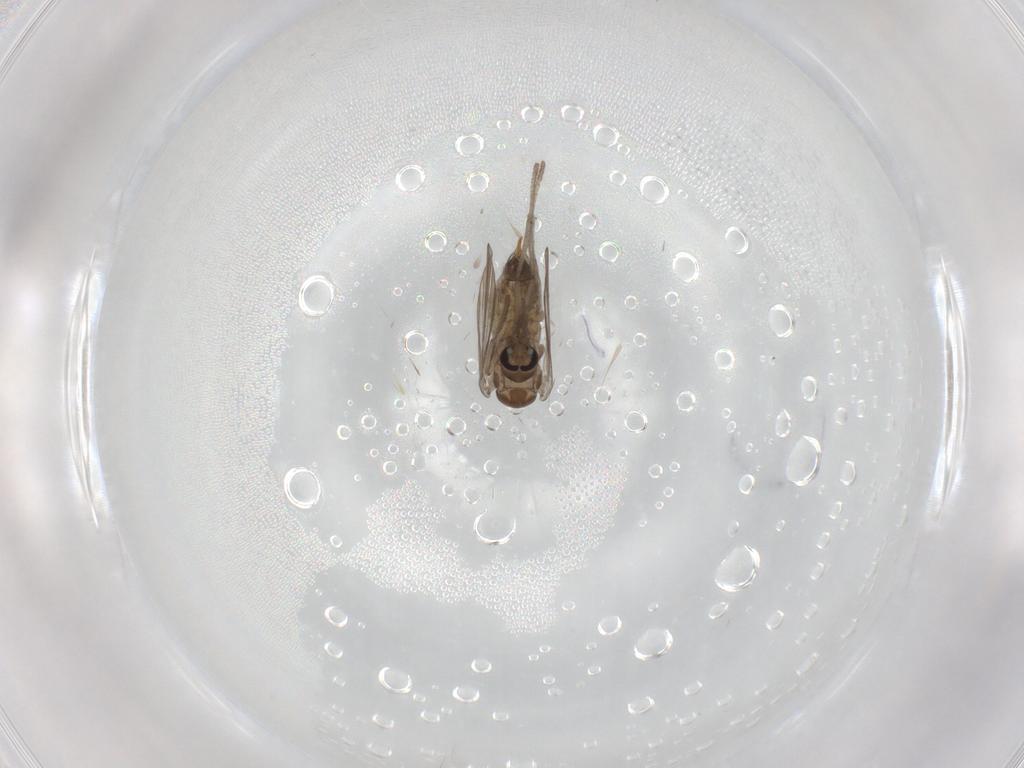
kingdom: Animalia
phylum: Arthropoda
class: Insecta
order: Diptera
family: Psychodidae
